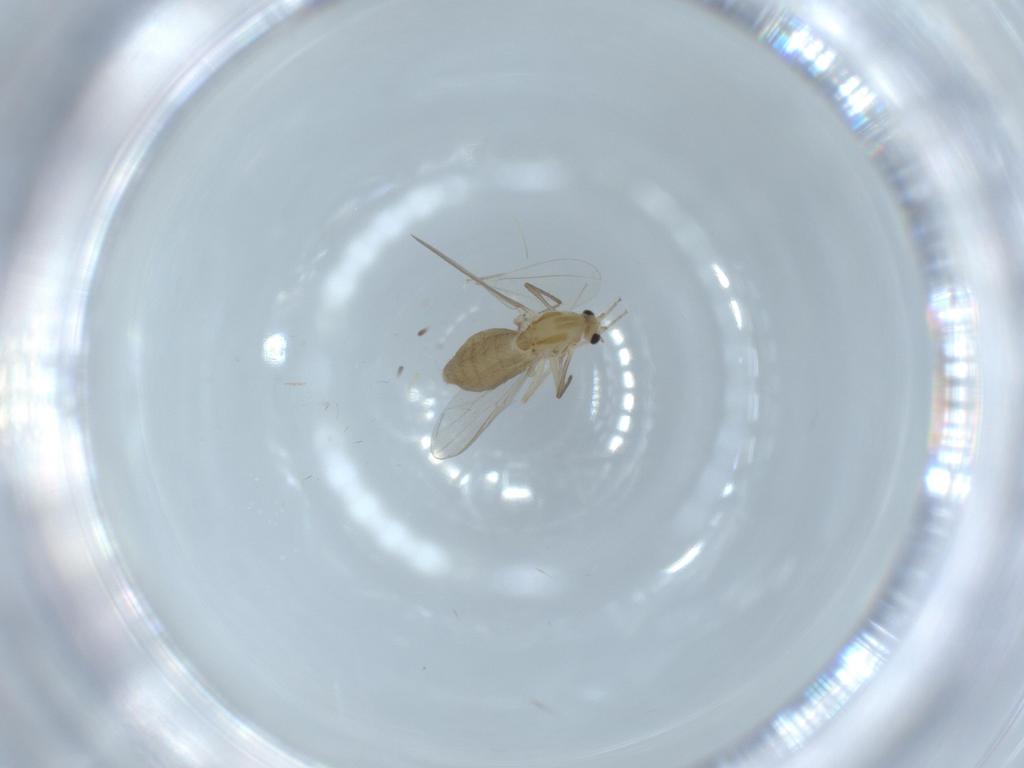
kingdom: Animalia
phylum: Arthropoda
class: Insecta
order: Diptera
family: Chironomidae
